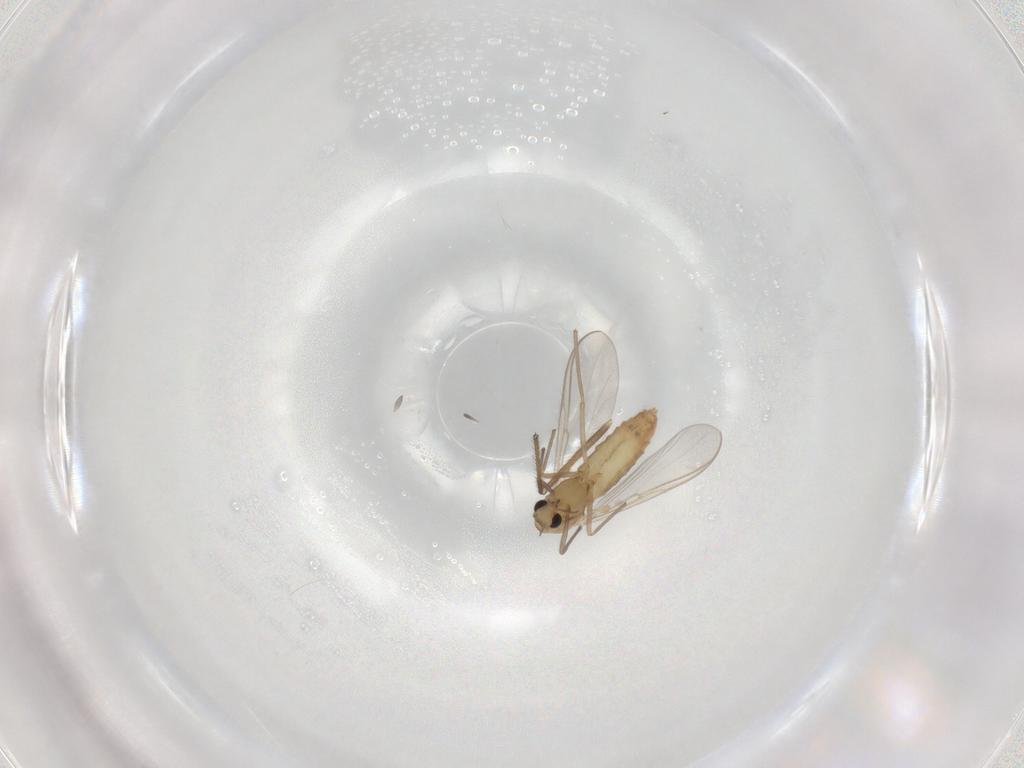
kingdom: Animalia
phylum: Arthropoda
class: Insecta
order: Diptera
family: Chironomidae
